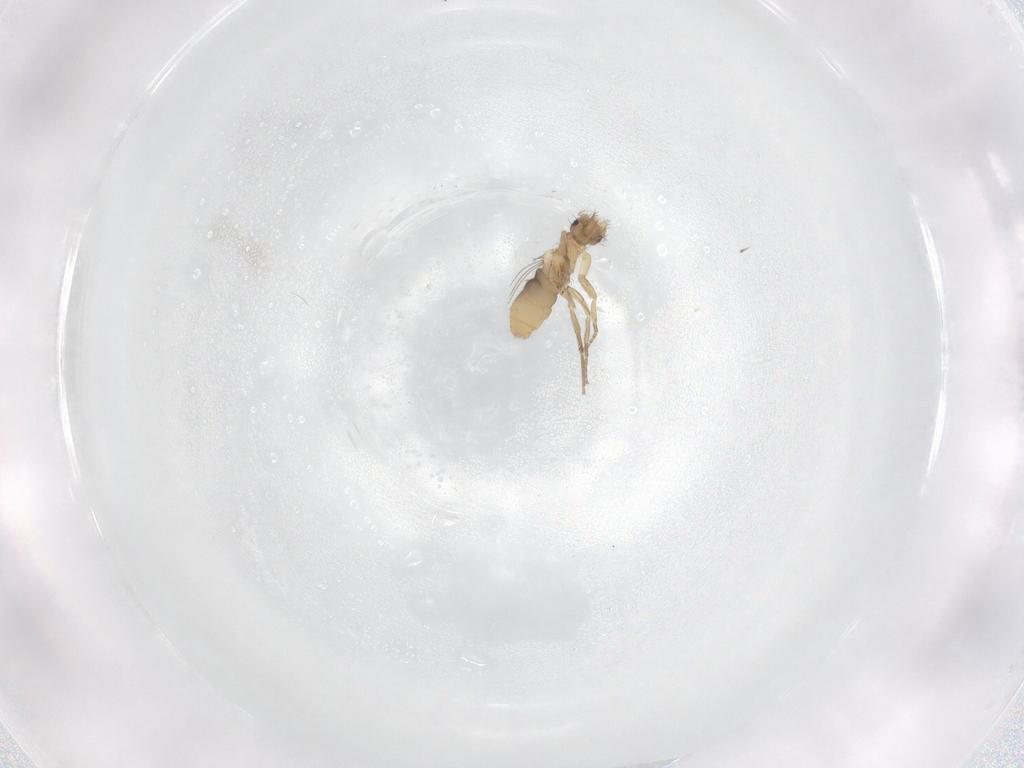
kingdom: Animalia
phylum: Arthropoda
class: Insecta
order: Diptera
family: Phoridae
